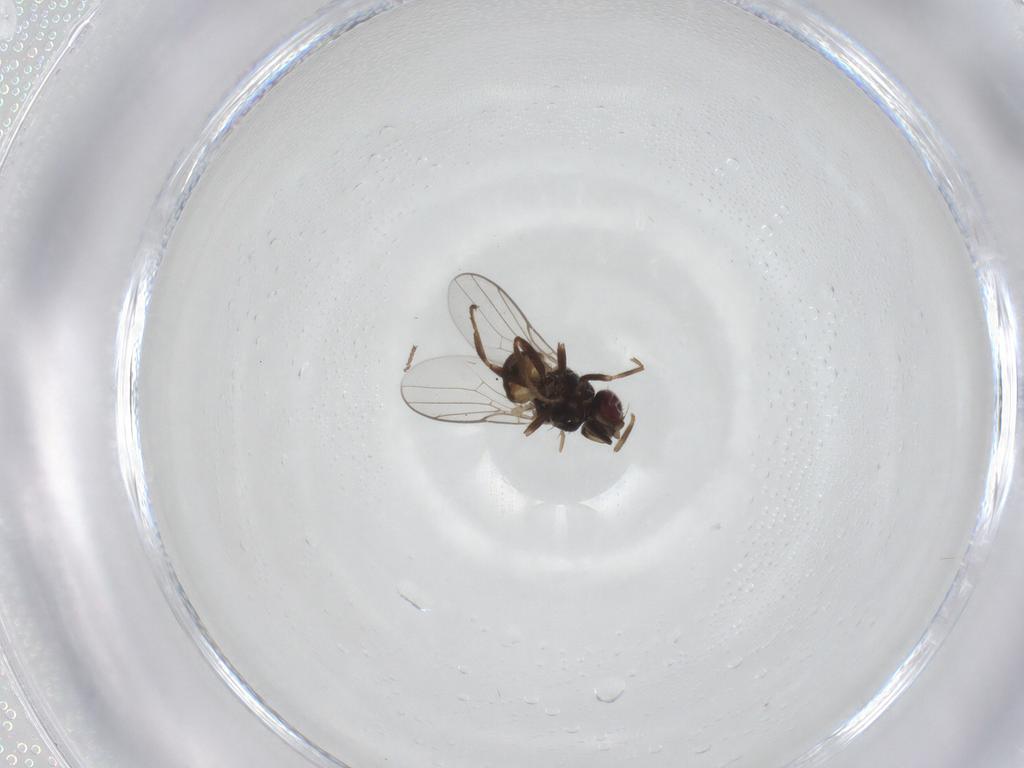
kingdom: Animalia
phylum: Arthropoda
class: Insecta
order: Diptera
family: Chloropidae
